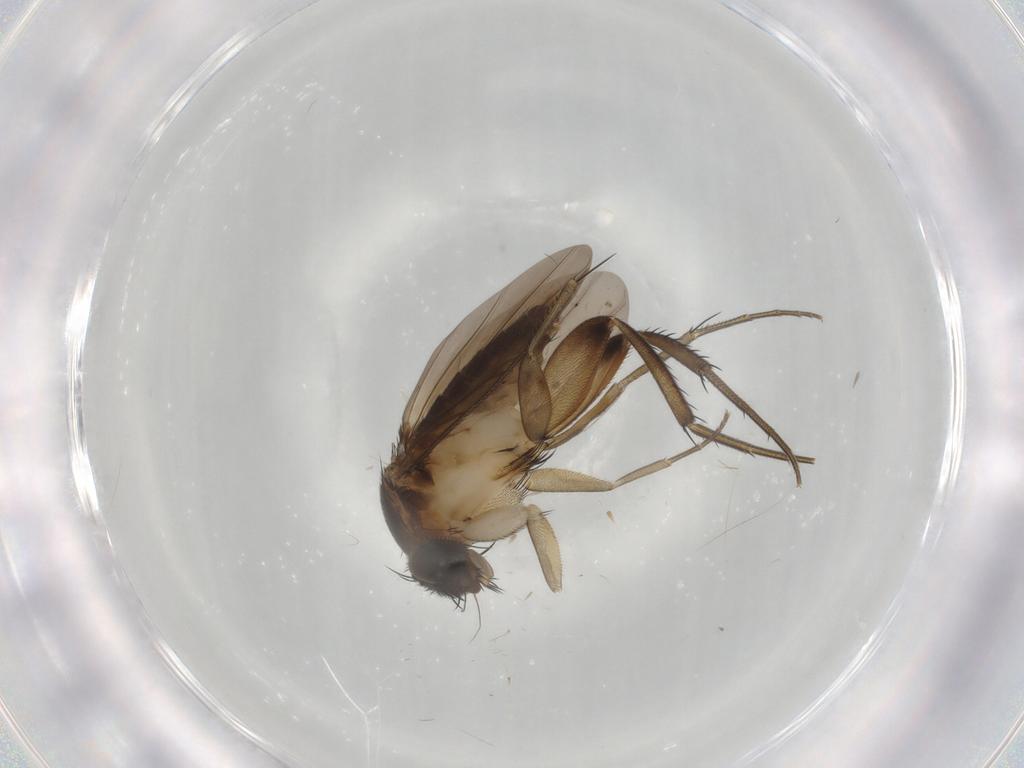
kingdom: Animalia
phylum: Arthropoda
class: Insecta
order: Diptera
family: Phoridae
